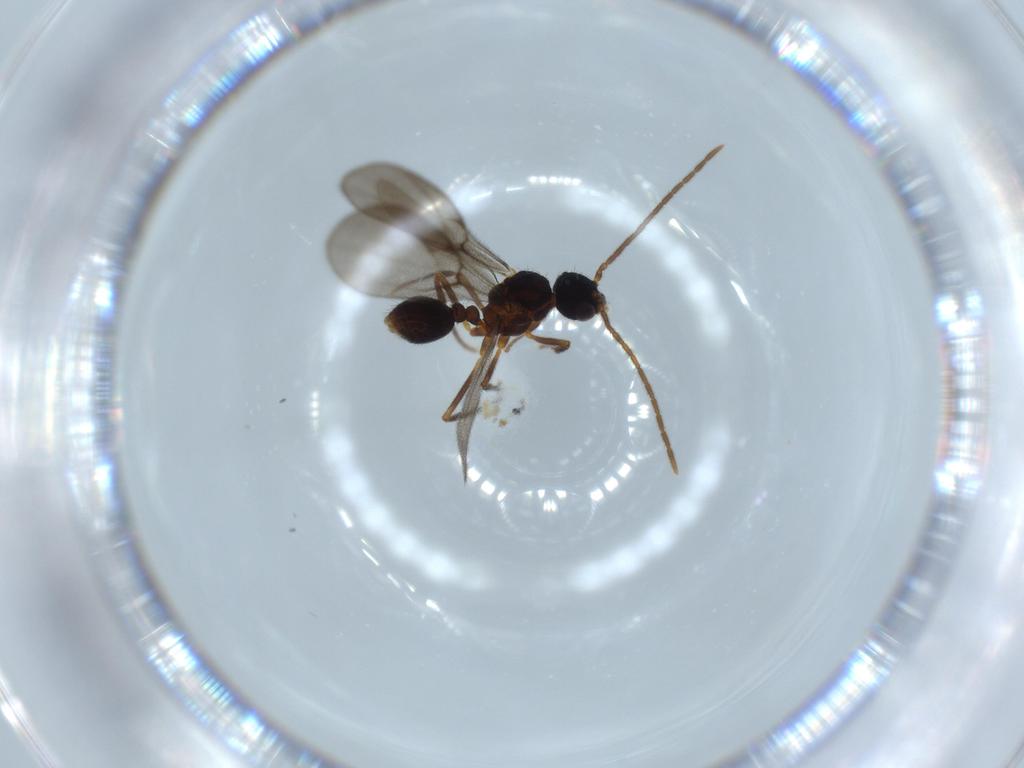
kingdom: Animalia
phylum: Arthropoda
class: Insecta
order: Hymenoptera
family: Formicidae
